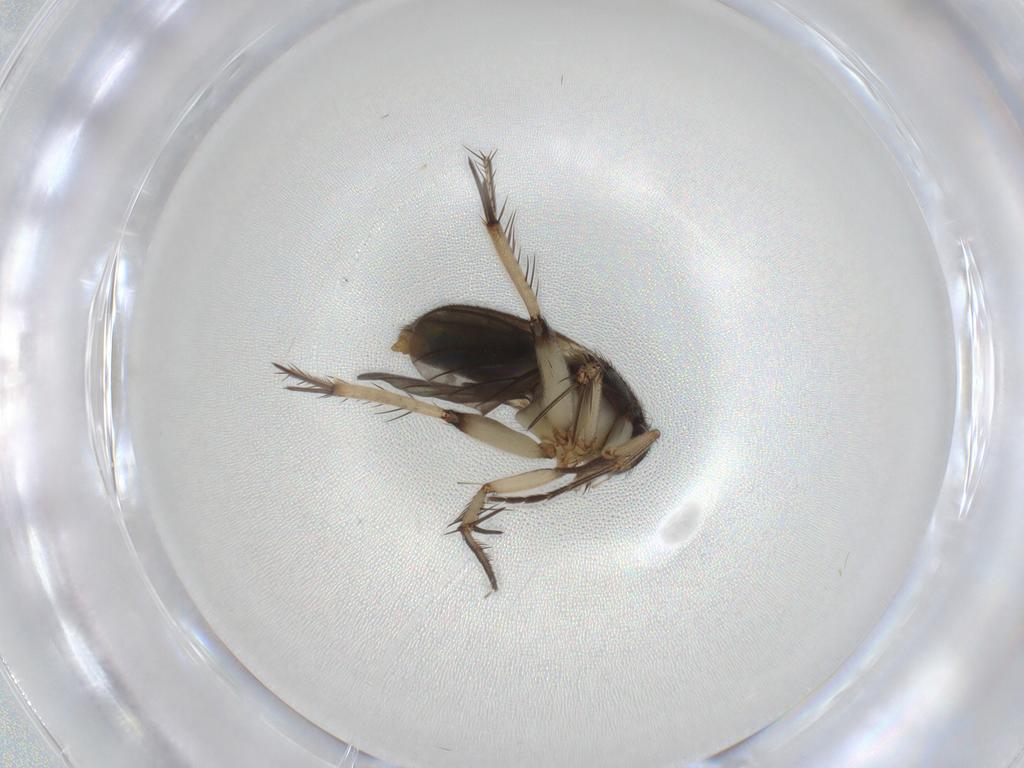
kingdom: Animalia
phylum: Arthropoda
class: Insecta
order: Diptera
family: Mycetophilidae
